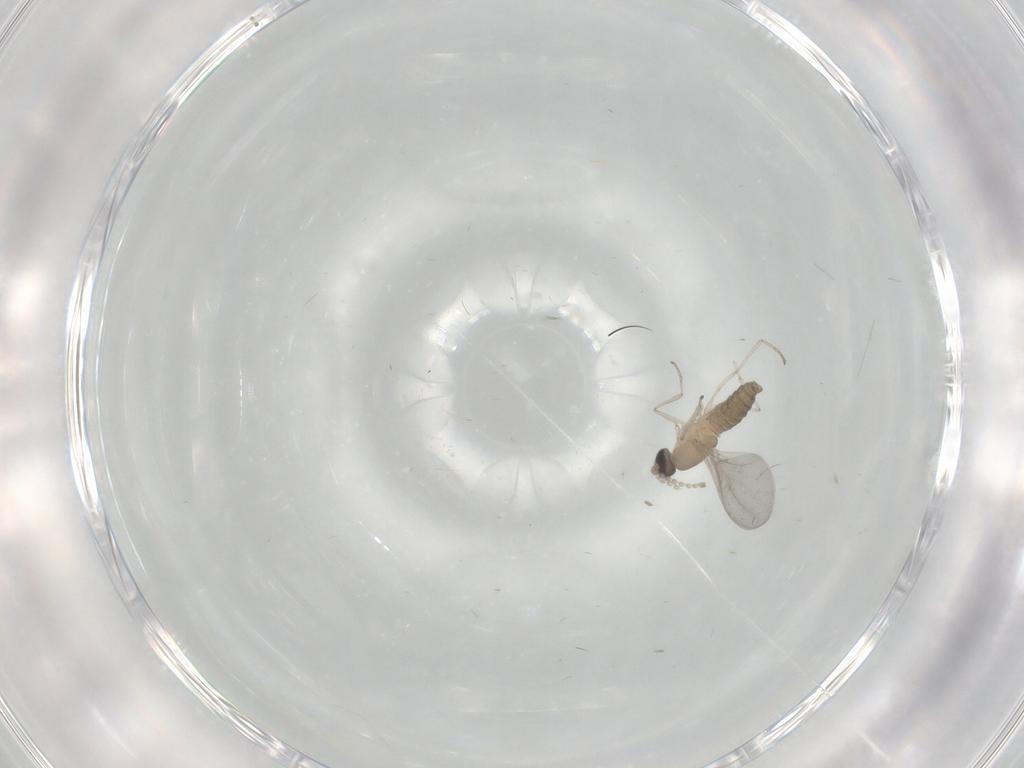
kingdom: Animalia
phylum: Arthropoda
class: Insecta
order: Diptera
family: Cecidomyiidae
